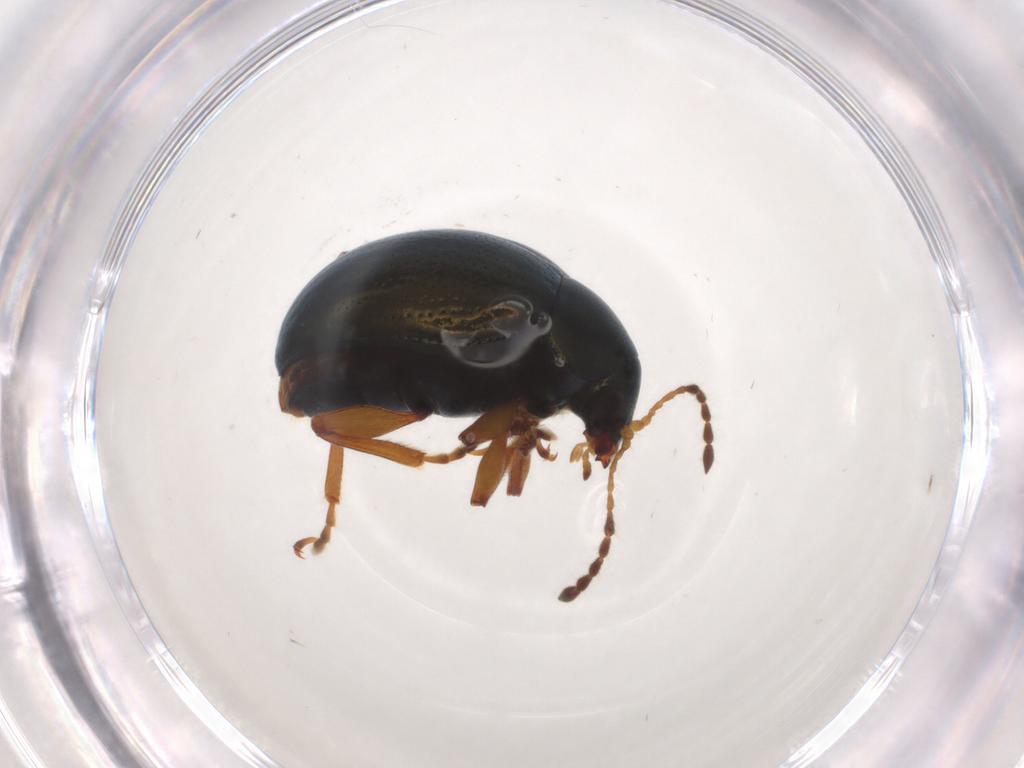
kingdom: Animalia
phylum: Arthropoda
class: Insecta
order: Coleoptera
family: Chrysomelidae
